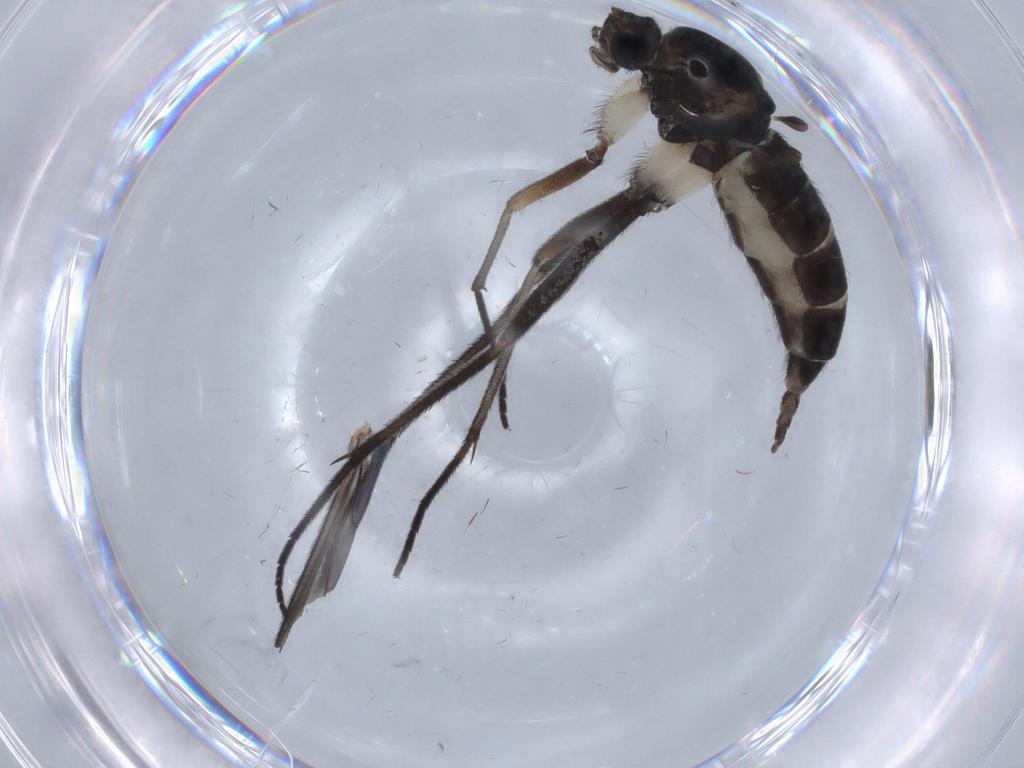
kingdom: Animalia
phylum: Arthropoda
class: Insecta
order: Diptera
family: Sciaridae
